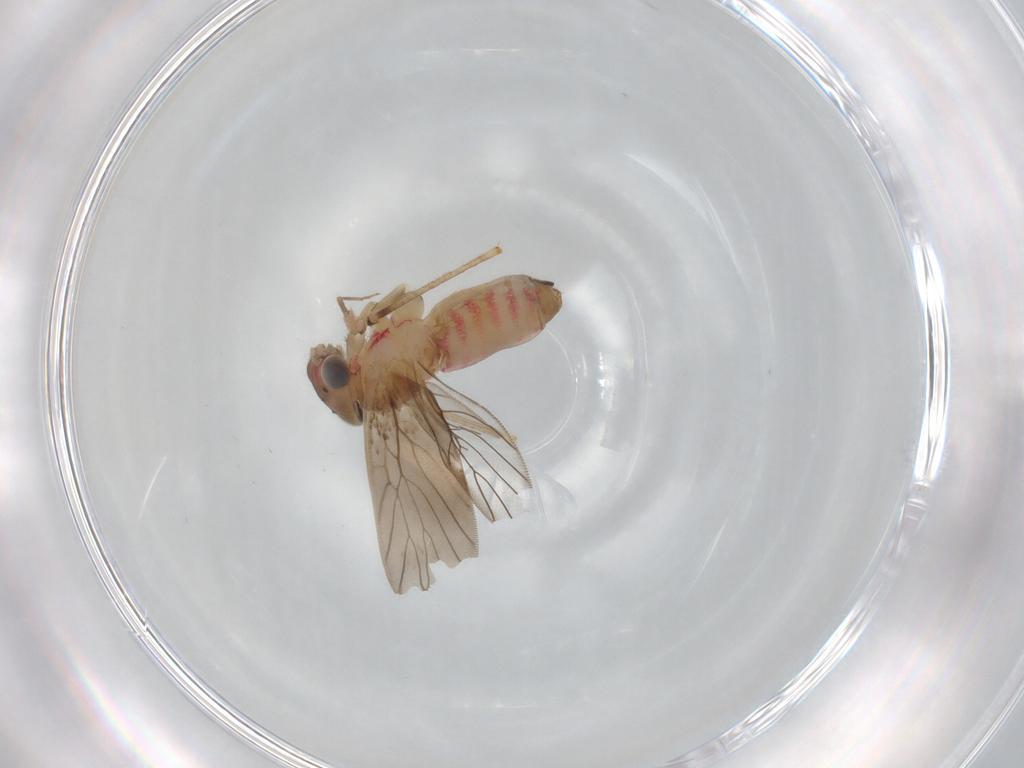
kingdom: Animalia
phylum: Arthropoda
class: Insecta
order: Psocodea
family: Lepidopsocidae
